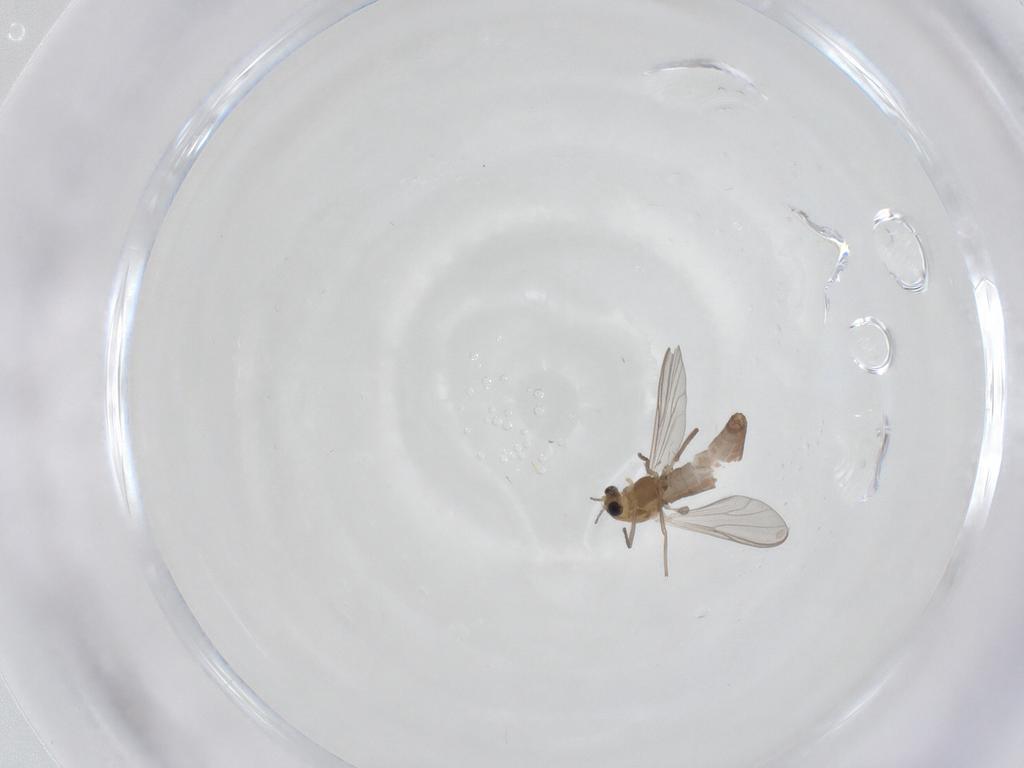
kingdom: Animalia
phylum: Arthropoda
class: Insecta
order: Diptera
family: Chironomidae
